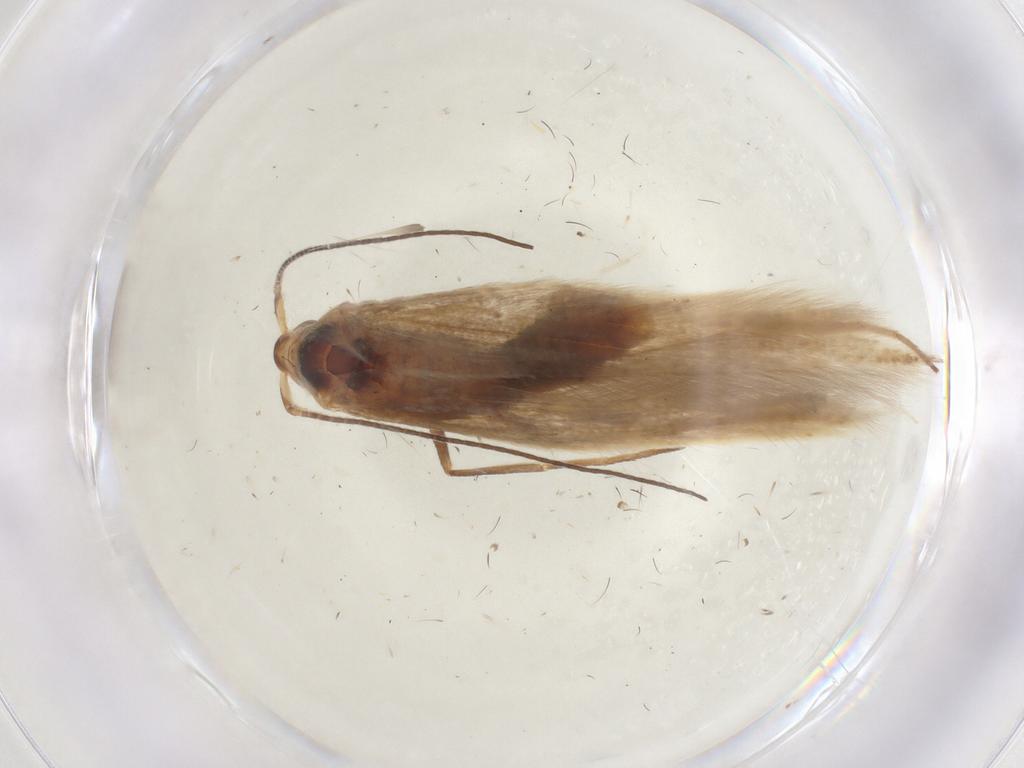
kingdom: Animalia
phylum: Arthropoda
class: Insecta
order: Lepidoptera
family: Coleophoridae
